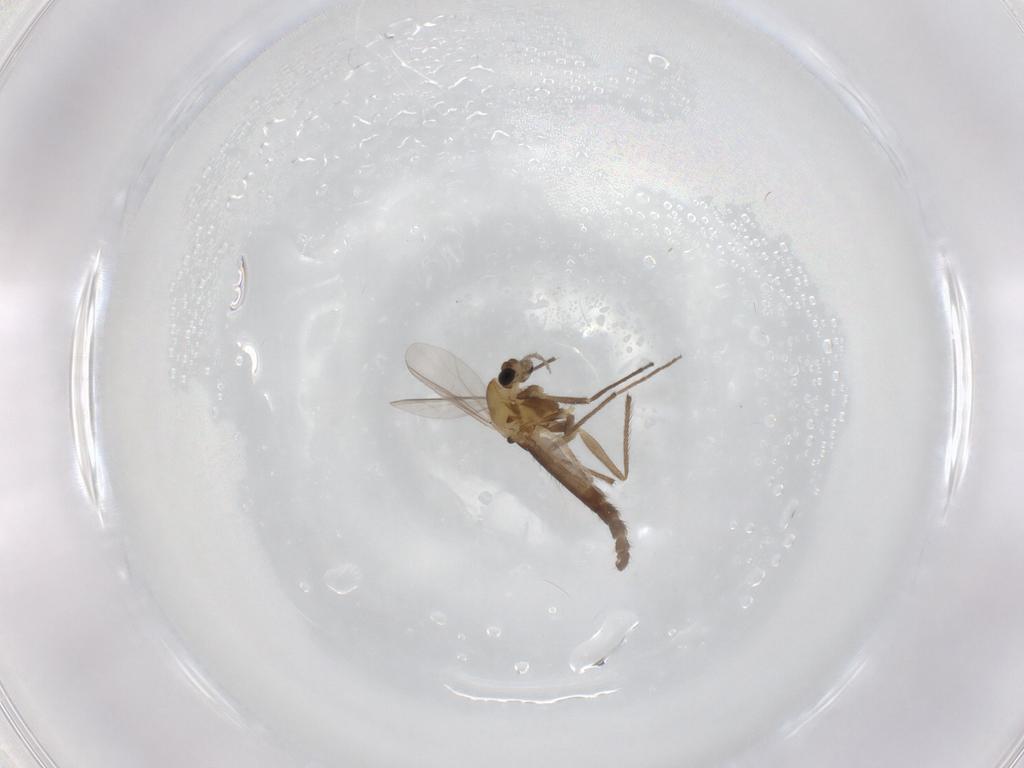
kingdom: Animalia
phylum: Arthropoda
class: Insecta
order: Diptera
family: Chironomidae
